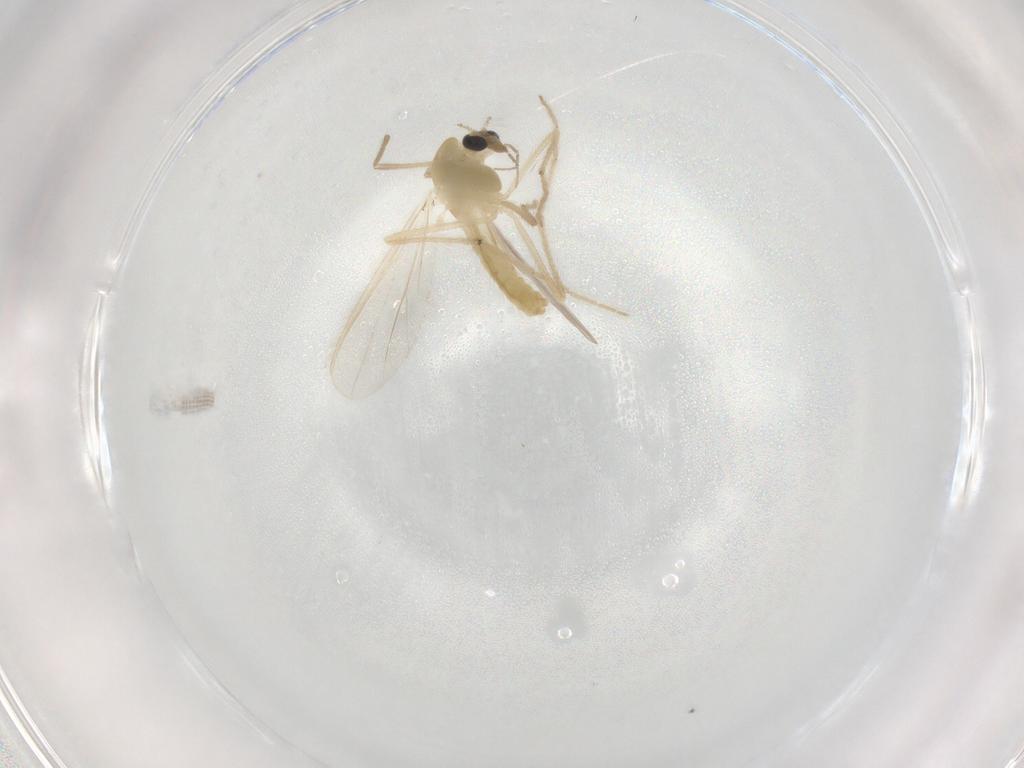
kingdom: Animalia
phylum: Arthropoda
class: Insecta
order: Diptera
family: Chironomidae
